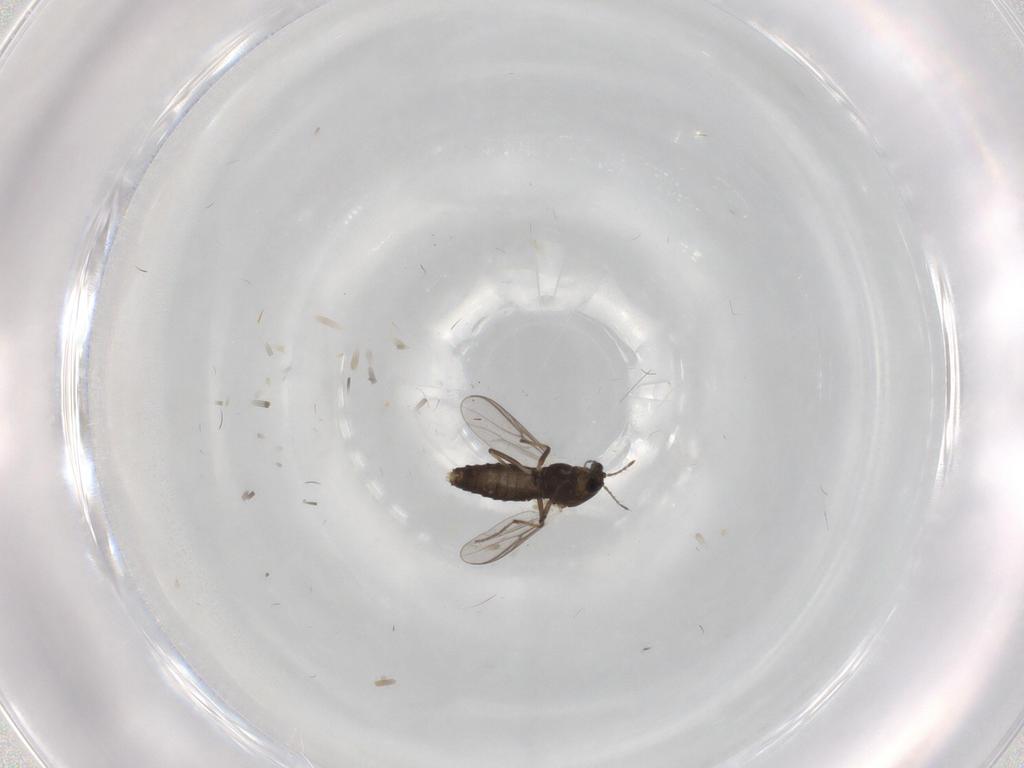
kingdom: Animalia
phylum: Arthropoda
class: Insecta
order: Diptera
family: Chironomidae
